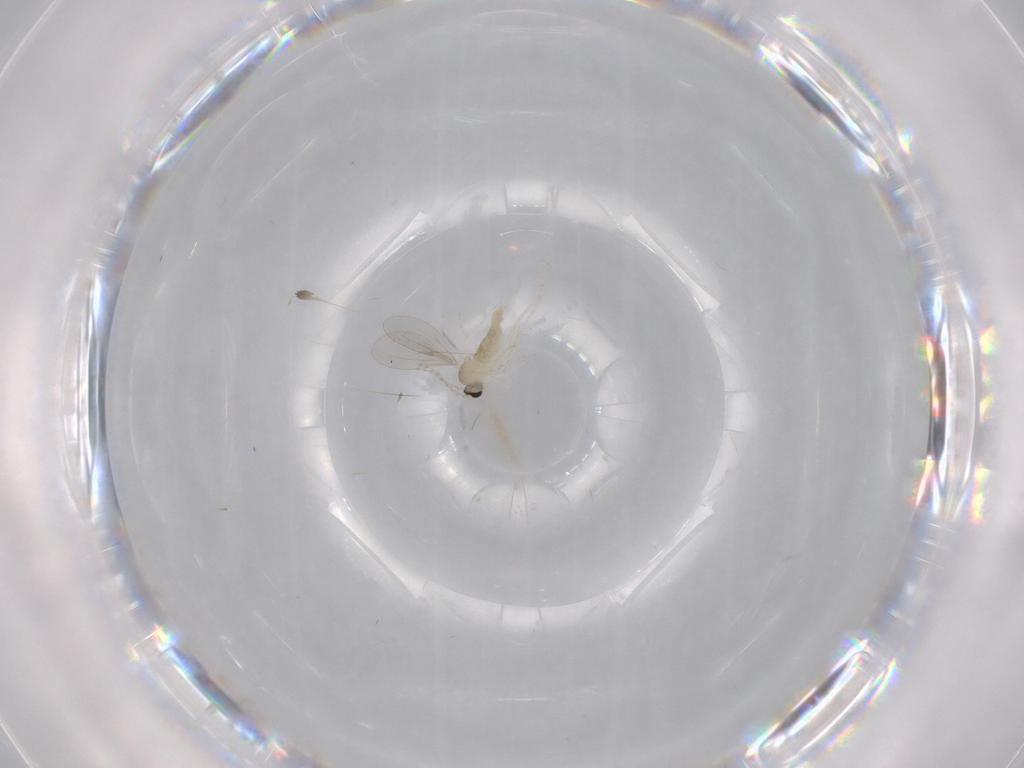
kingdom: Animalia
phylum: Arthropoda
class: Insecta
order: Diptera
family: Cecidomyiidae
